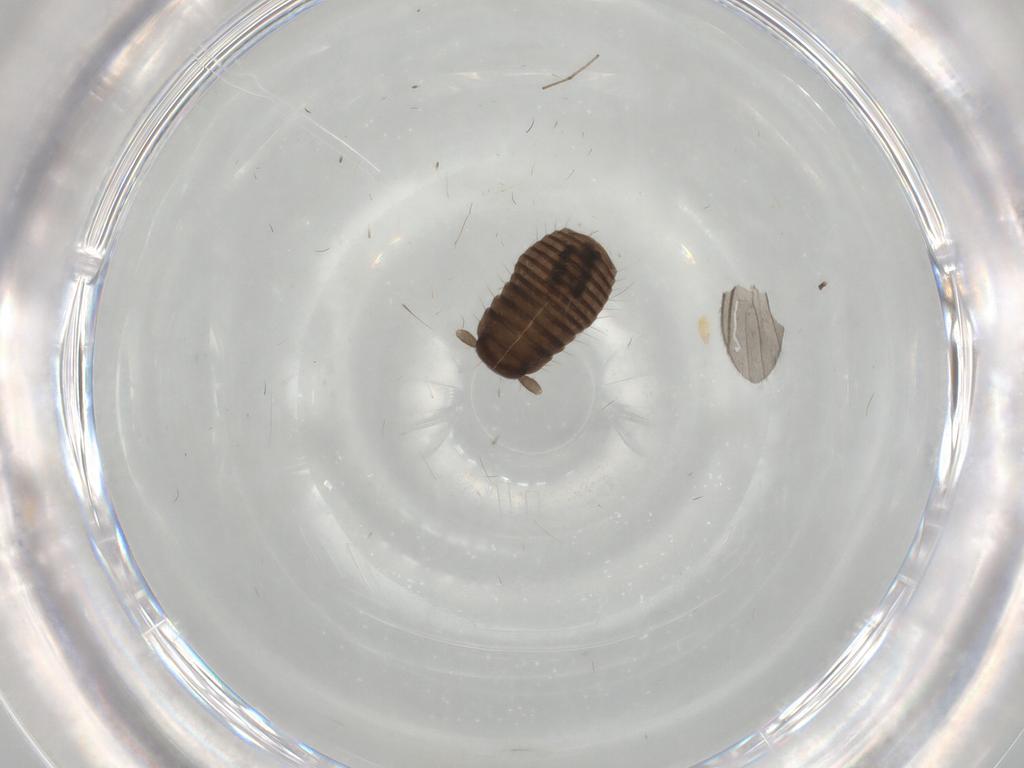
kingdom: Animalia
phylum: Arthropoda
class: Insecta
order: Coleoptera
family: Tenebrionidae
